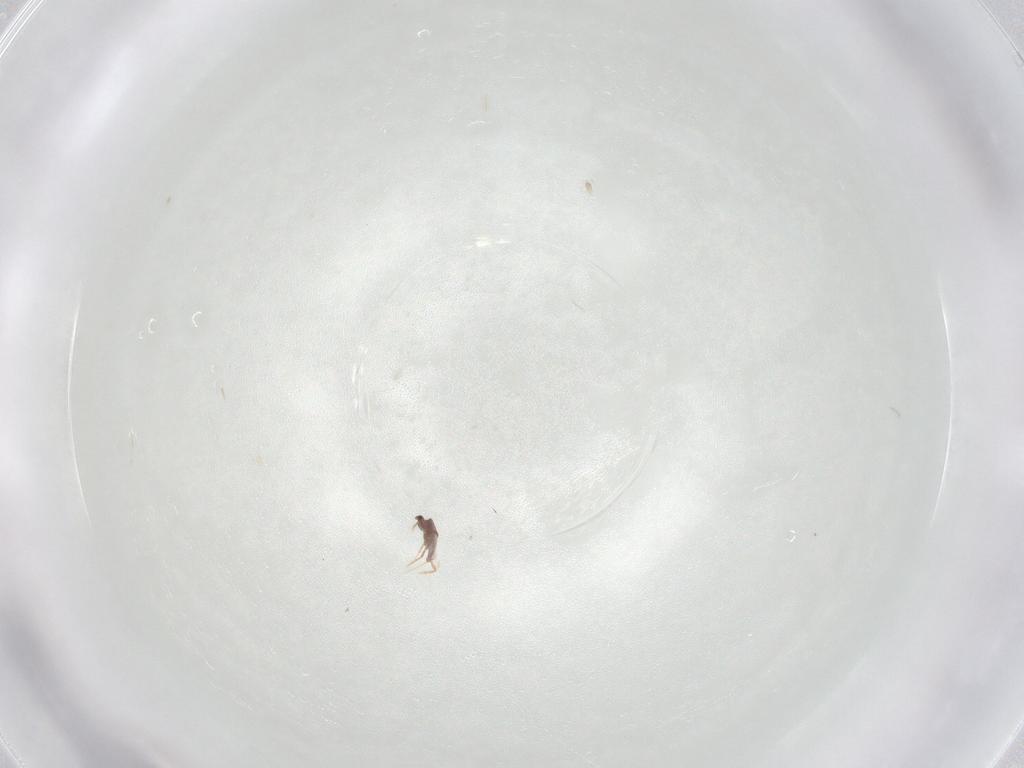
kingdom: Animalia
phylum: Arthropoda
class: Insecta
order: Hemiptera
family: Diaspididae
